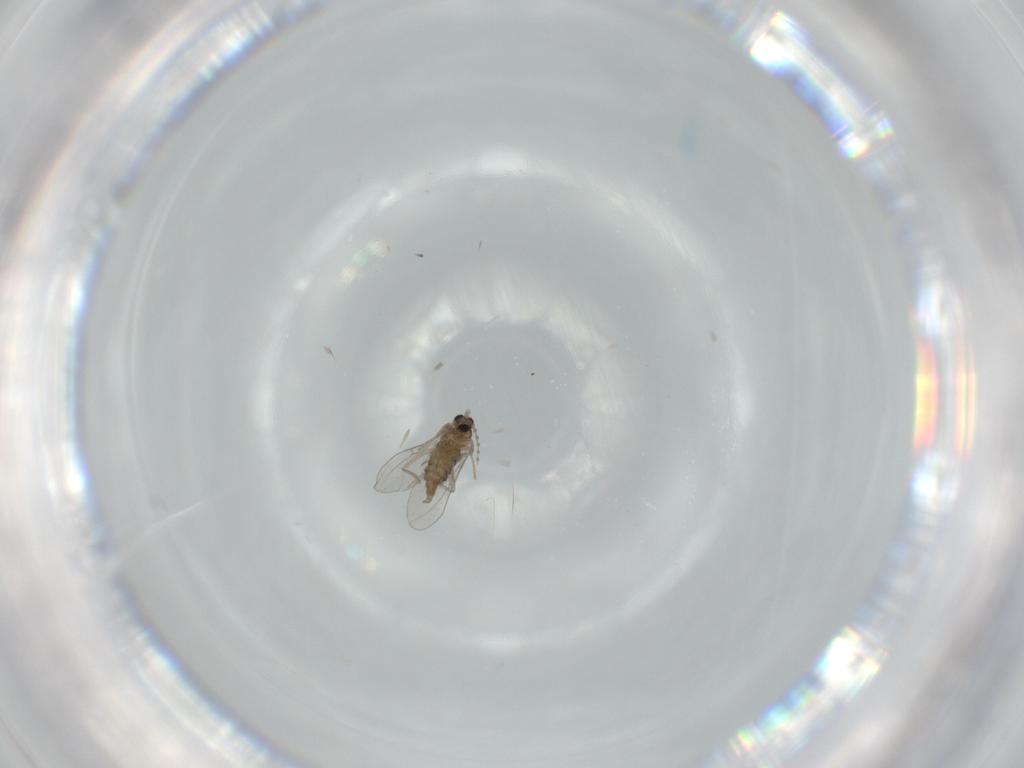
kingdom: Animalia
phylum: Arthropoda
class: Insecta
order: Diptera
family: Cecidomyiidae
